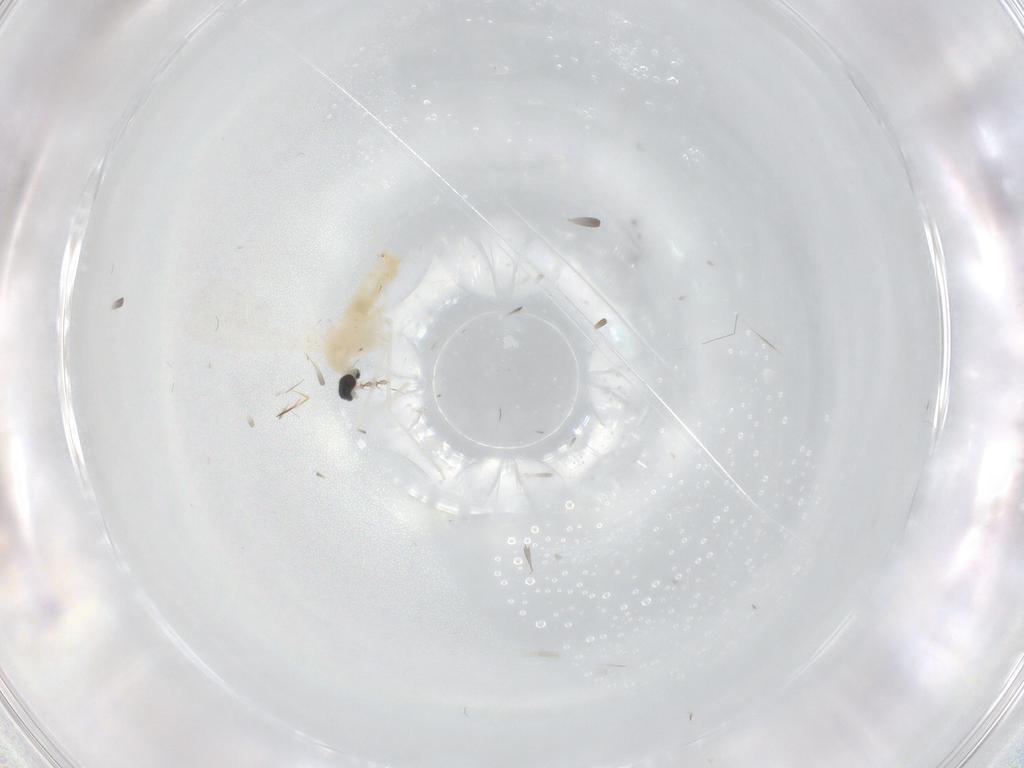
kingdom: Animalia
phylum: Arthropoda
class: Insecta
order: Diptera
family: Cecidomyiidae
